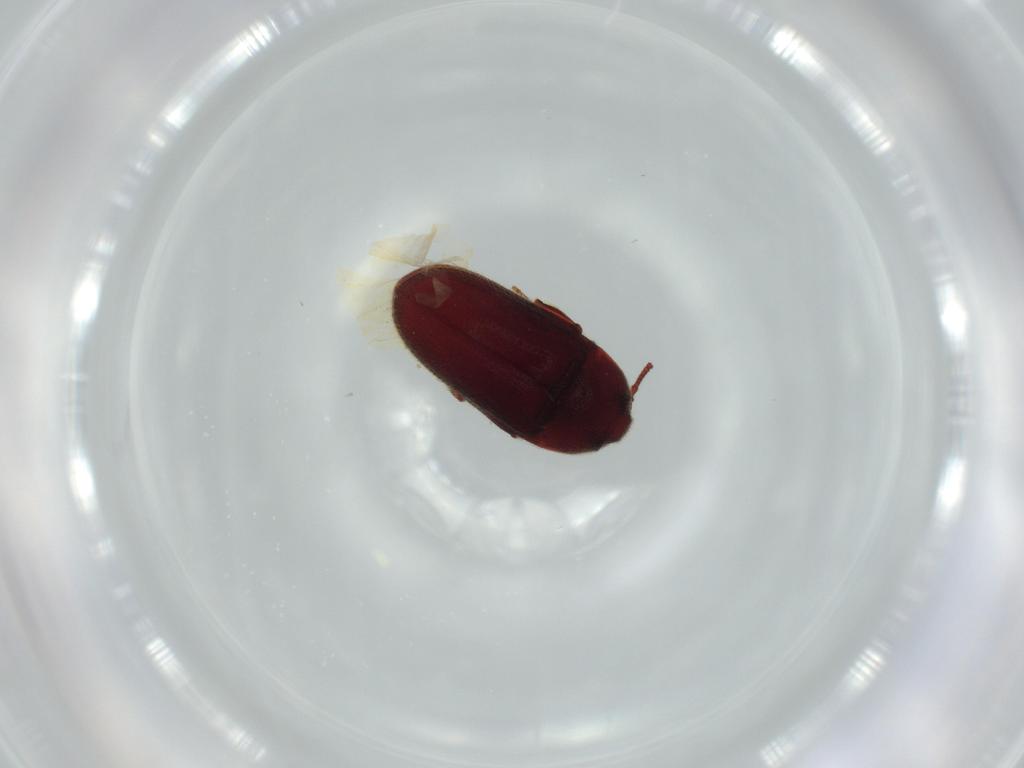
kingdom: Animalia
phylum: Arthropoda
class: Insecta
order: Coleoptera
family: Throscidae
